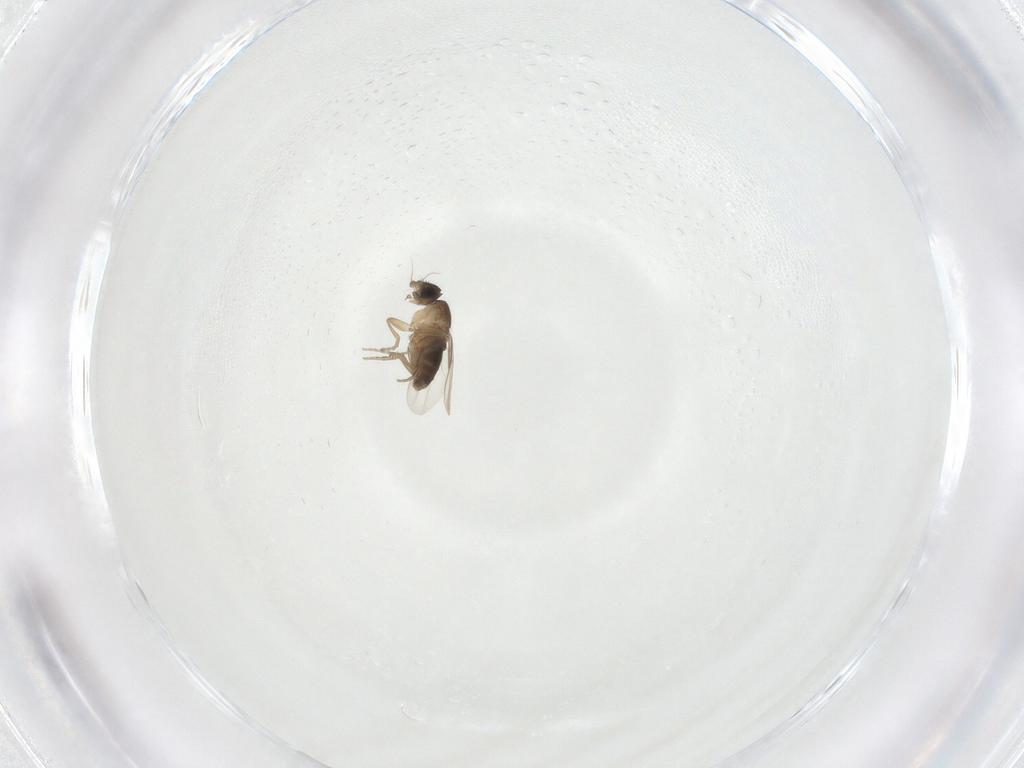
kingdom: Animalia
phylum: Arthropoda
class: Insecta
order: Diptera
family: Phoridae
